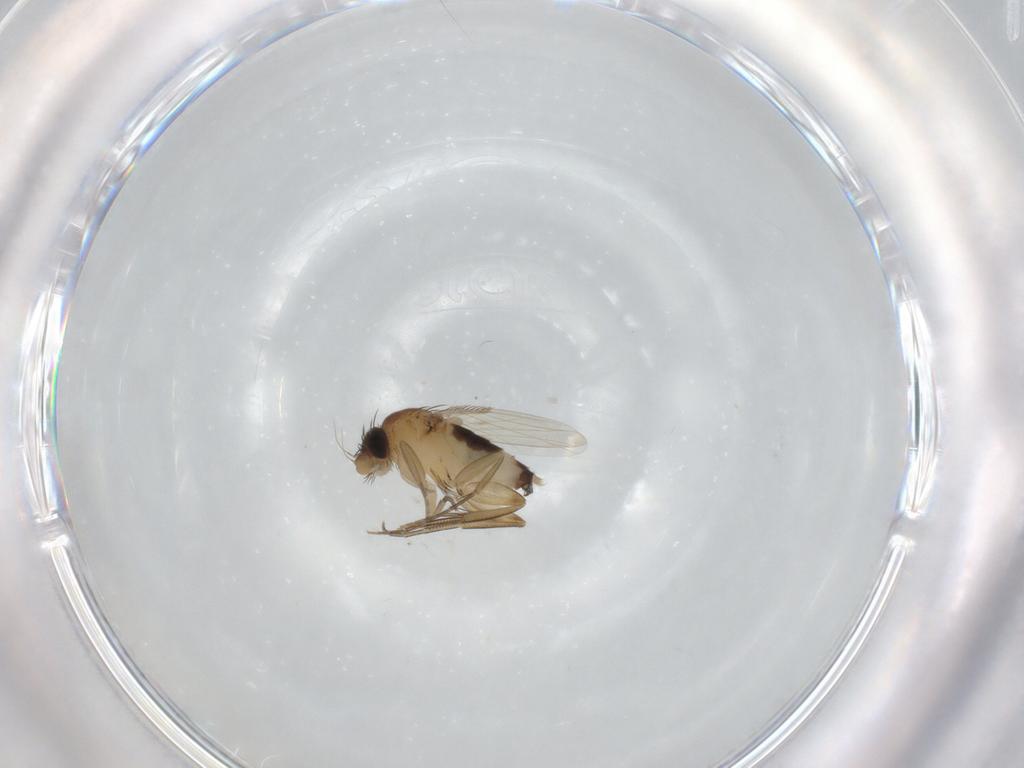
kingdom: Animalia
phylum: Arthropoda
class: Insecta
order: Diptera
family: Phoridae
